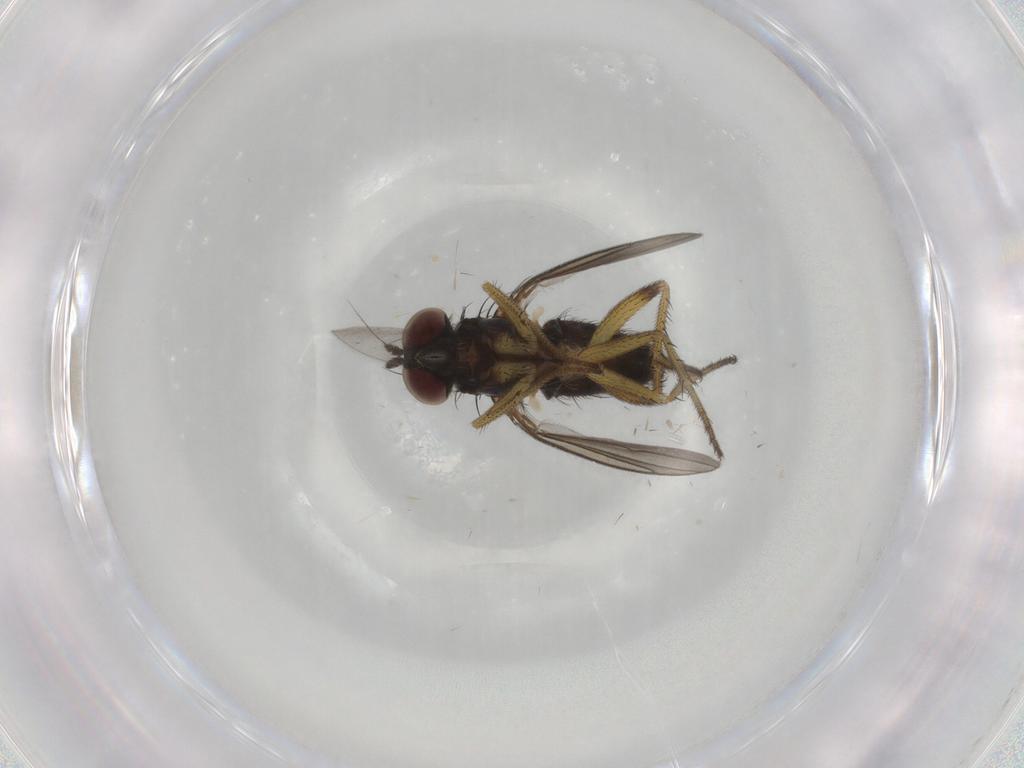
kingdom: Animalia
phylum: Arthropoda
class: Insecta
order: Diptera
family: Dolichopodidae
